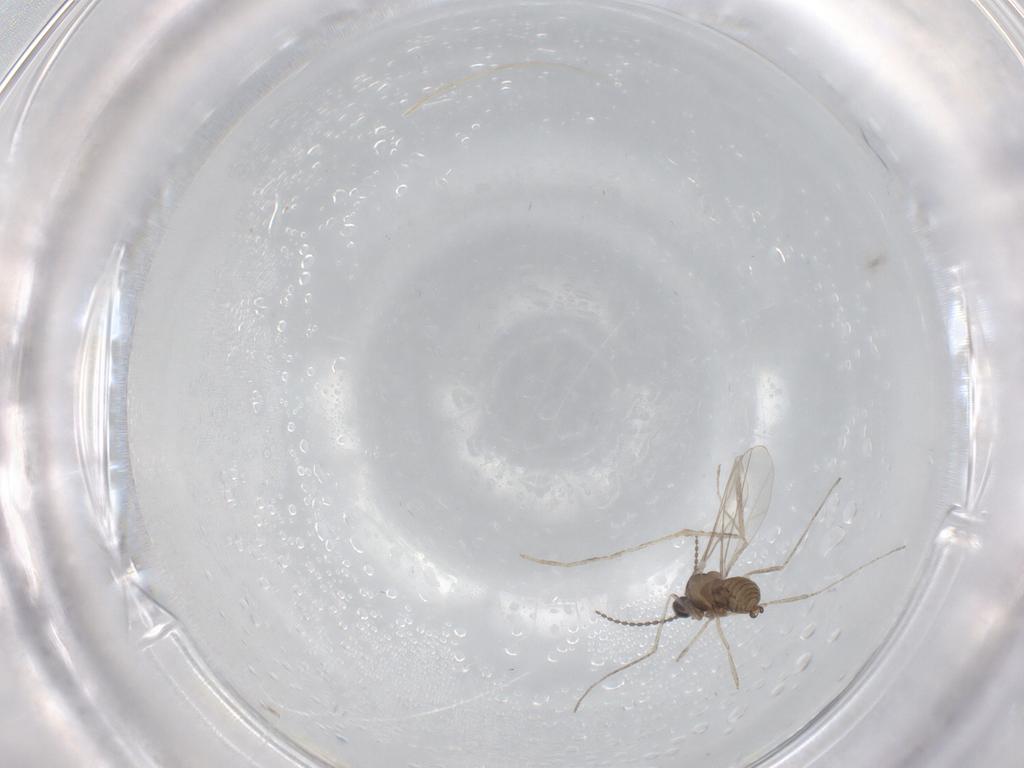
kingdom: Animalia
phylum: Arthropoda
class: Insecta
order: Diptera
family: Cecidomyiidae
